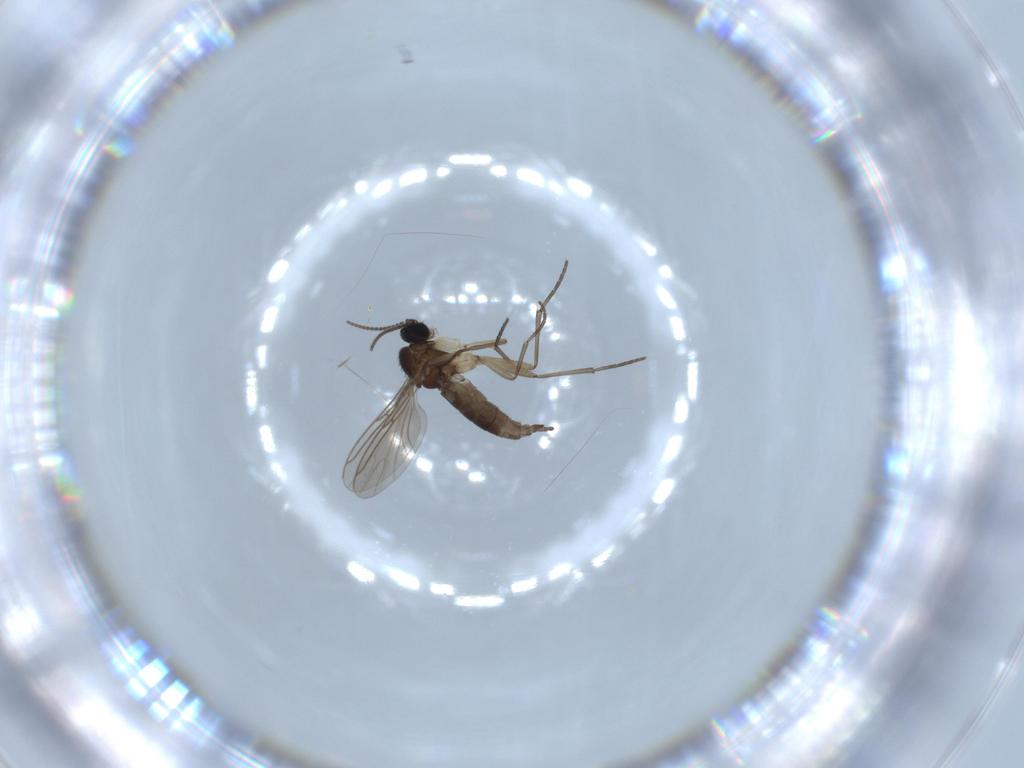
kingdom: Animalia
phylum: Arthropoda
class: Insecta
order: Diptera
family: Sciaridae
